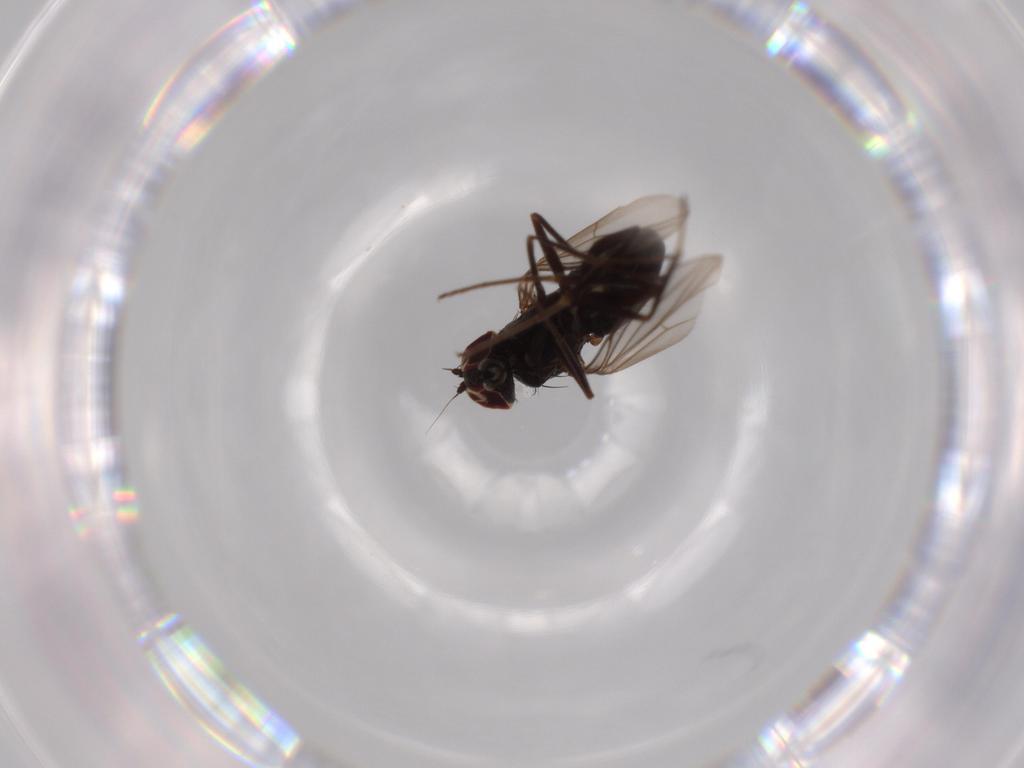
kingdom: Animalia
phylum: Arthropoda
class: Insecta
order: Diptera
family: Dolichopodidae
